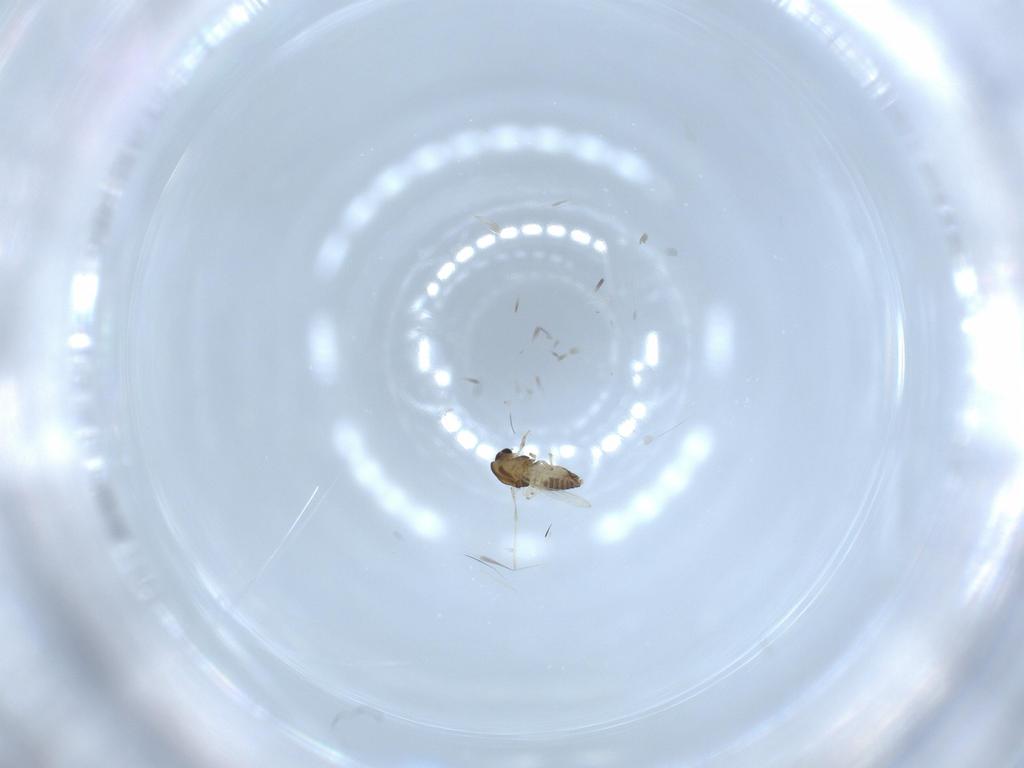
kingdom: Animalia
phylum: Arthropoda
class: Insecta
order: Diptera
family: Chironomidae
